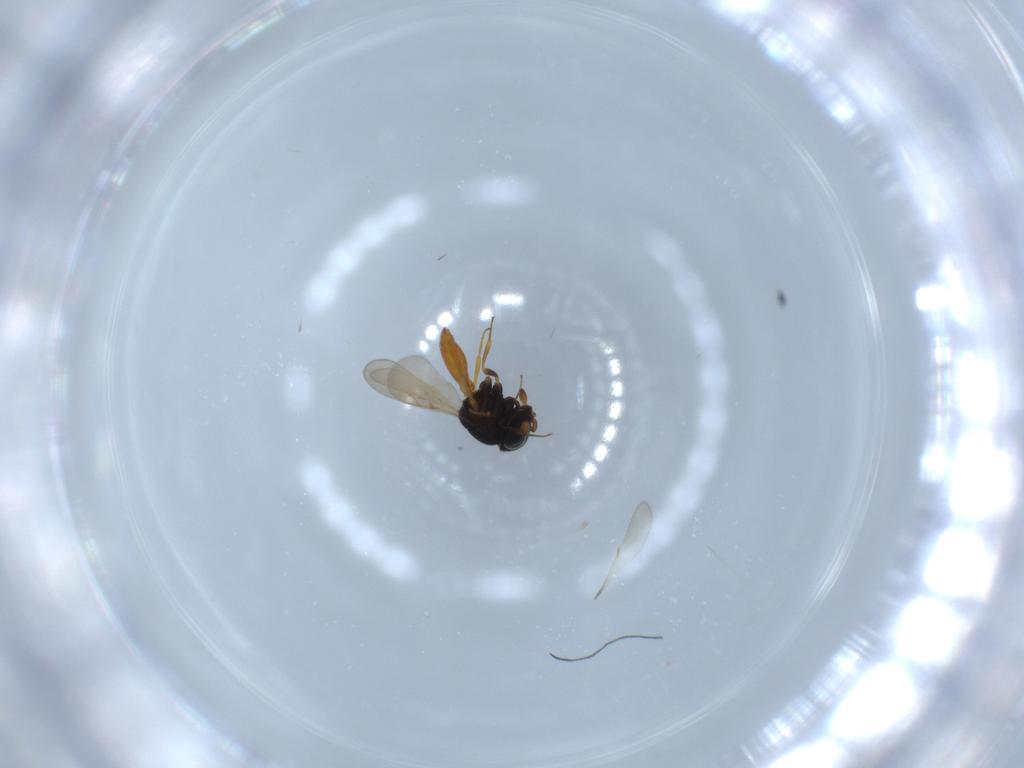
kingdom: Animalia
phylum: Arthropoda
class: Insecta
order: Hymenoptera
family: Scelionidae
